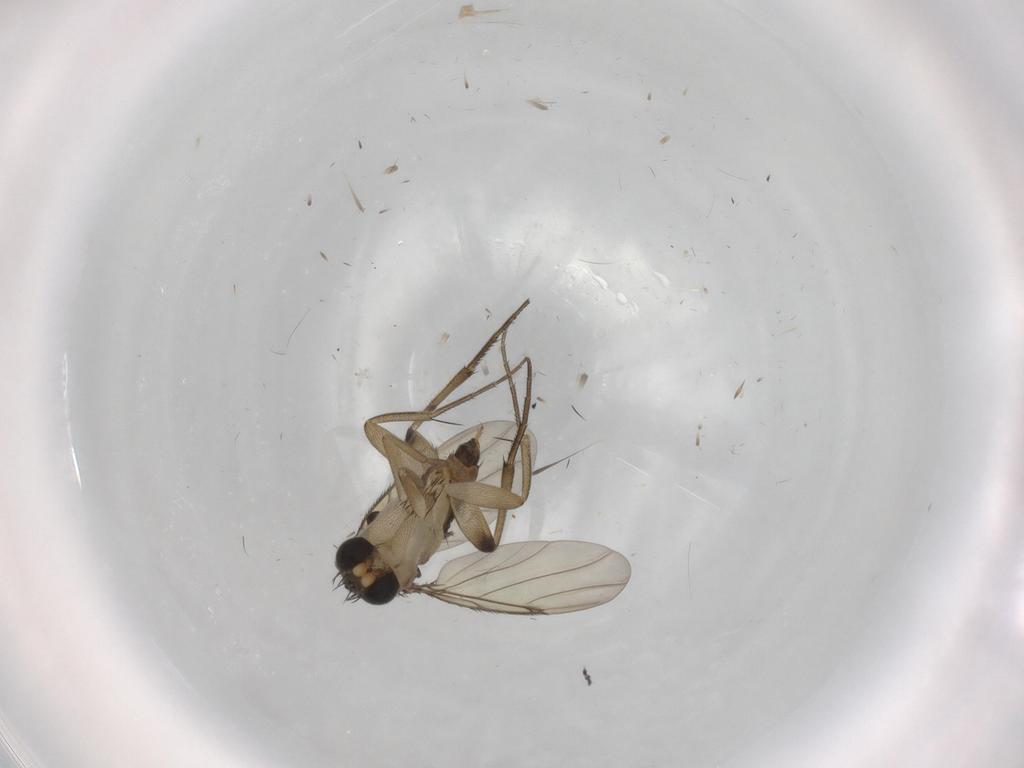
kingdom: Animalia
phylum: Arthropoda
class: Insecta
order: Diptera
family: Phoridae
